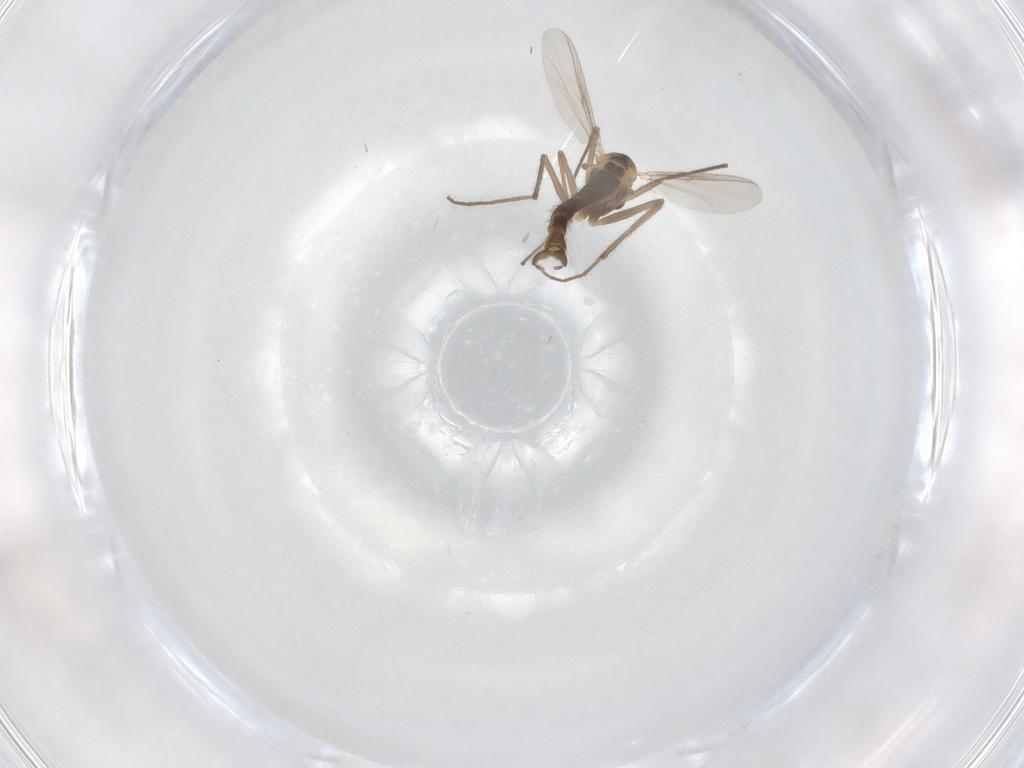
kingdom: Animalia
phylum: Arthropoda
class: Insecta
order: Diptera
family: Chironomidae
